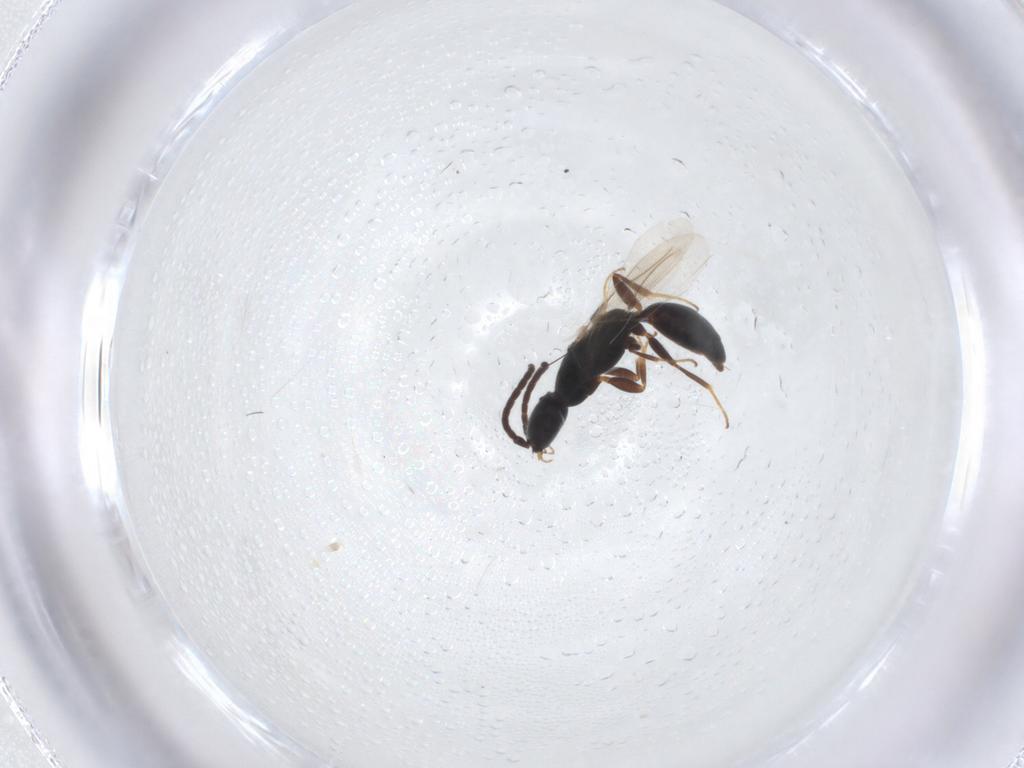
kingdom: Animalia
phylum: Arthropoda
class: Insecta
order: Hymenoptera
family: Bethylidae
